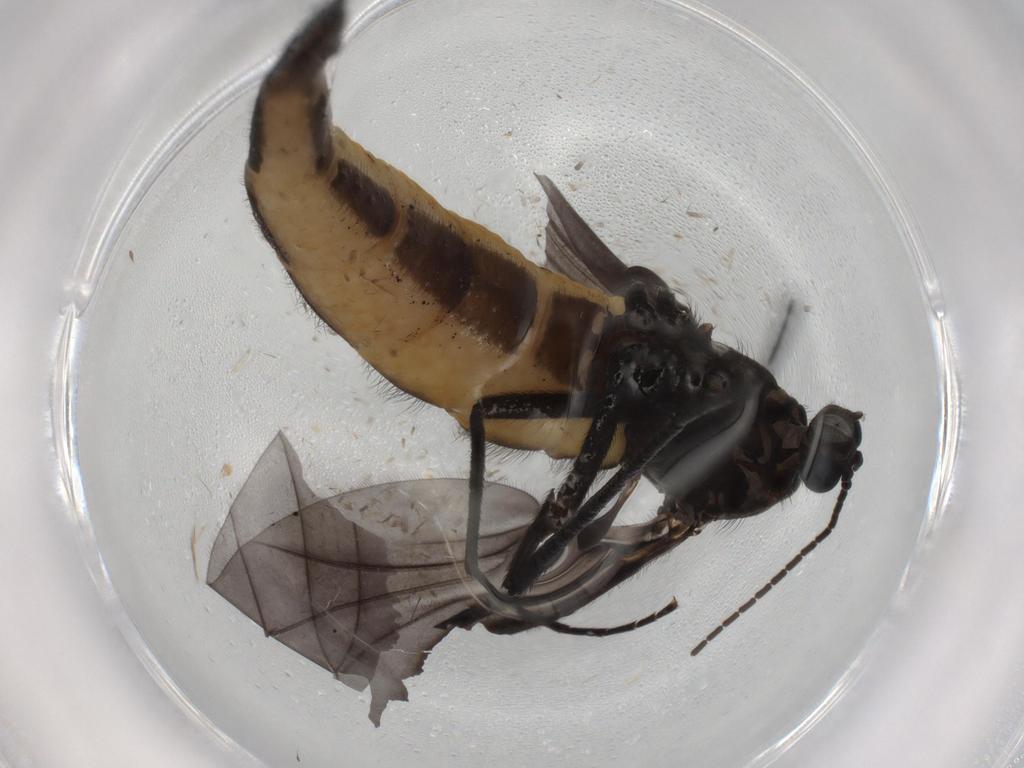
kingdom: Animalia
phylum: Arthropoda
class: Insecta
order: Diptera
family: Sciaridae
